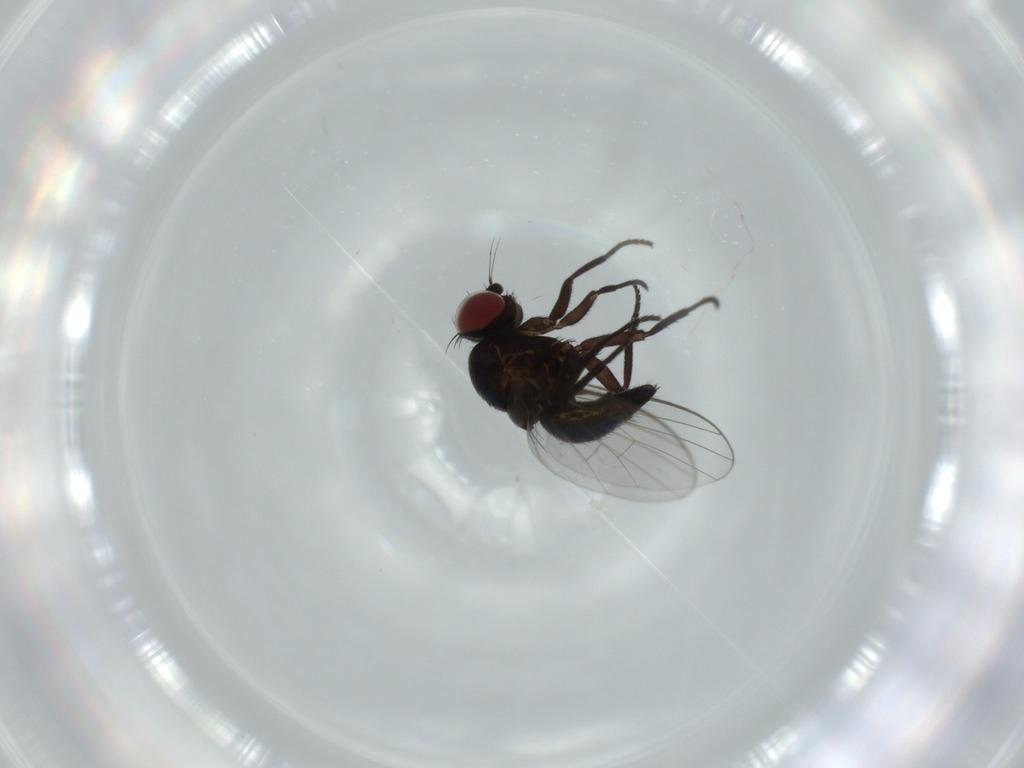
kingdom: Animalia
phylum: Arthropoda
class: Insecta
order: Diptera
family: Agromyzidae
